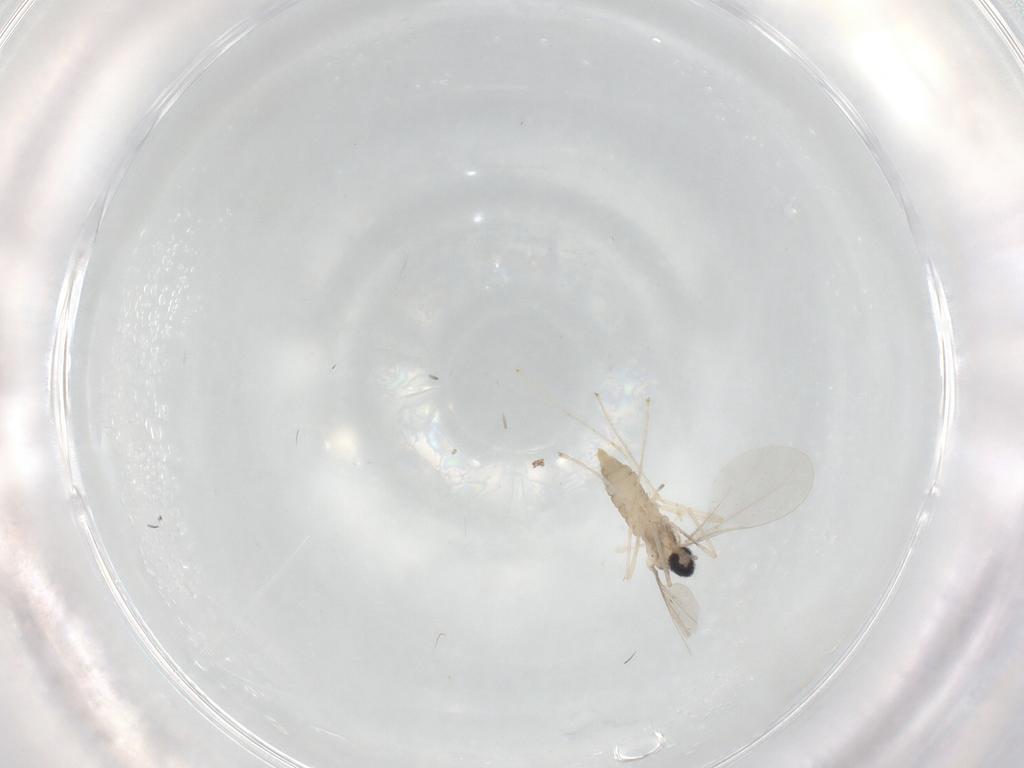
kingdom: Animalia
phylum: Arthropoda
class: Insecta
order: Diptera
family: Cecidomyiidae
